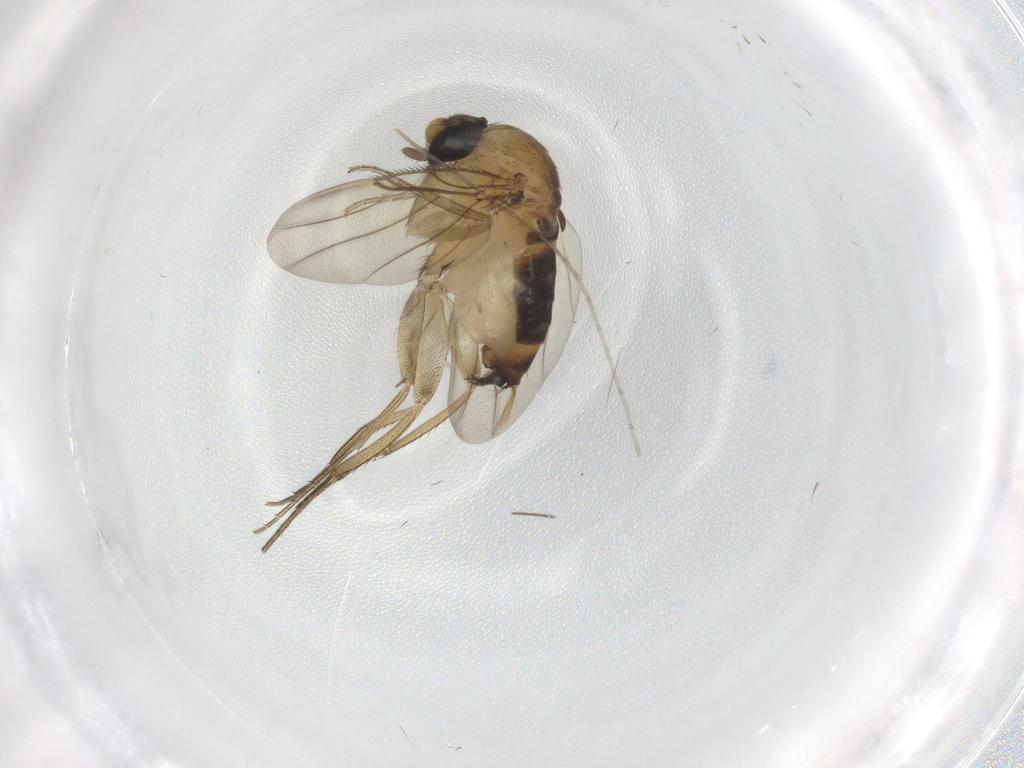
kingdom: Animalia
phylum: Arthropoda
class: Insecta
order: Diptera
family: Phoridae
